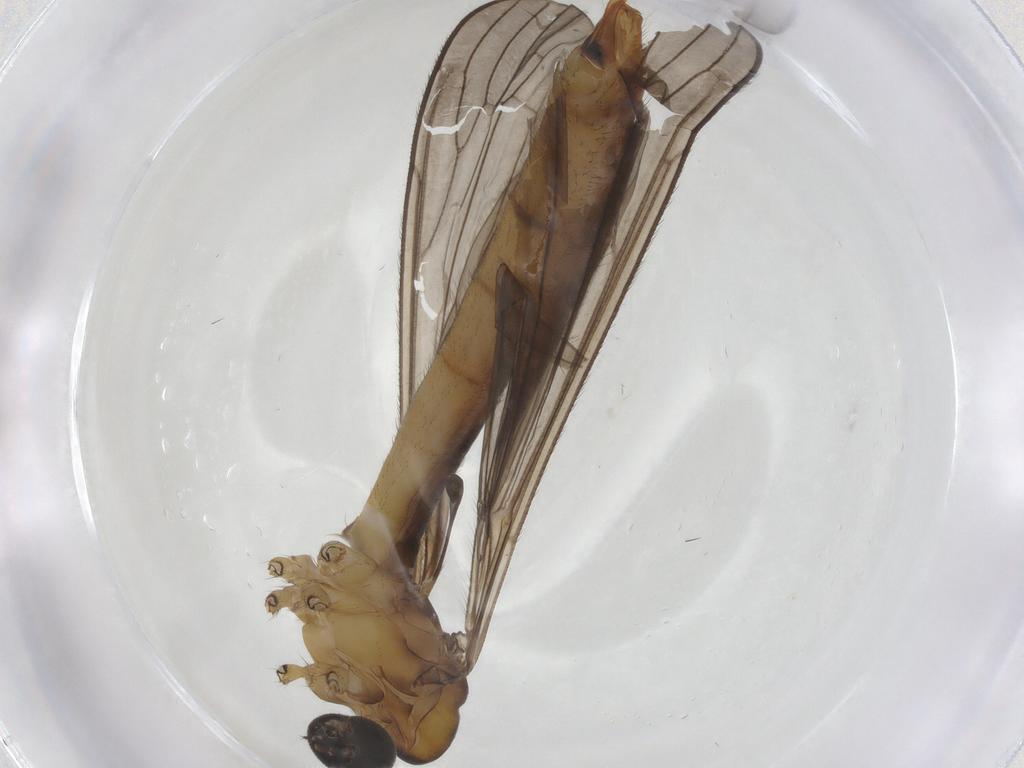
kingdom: Animalia
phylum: Arthropoda
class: Insecta
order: Diptera
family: Limoniidae
